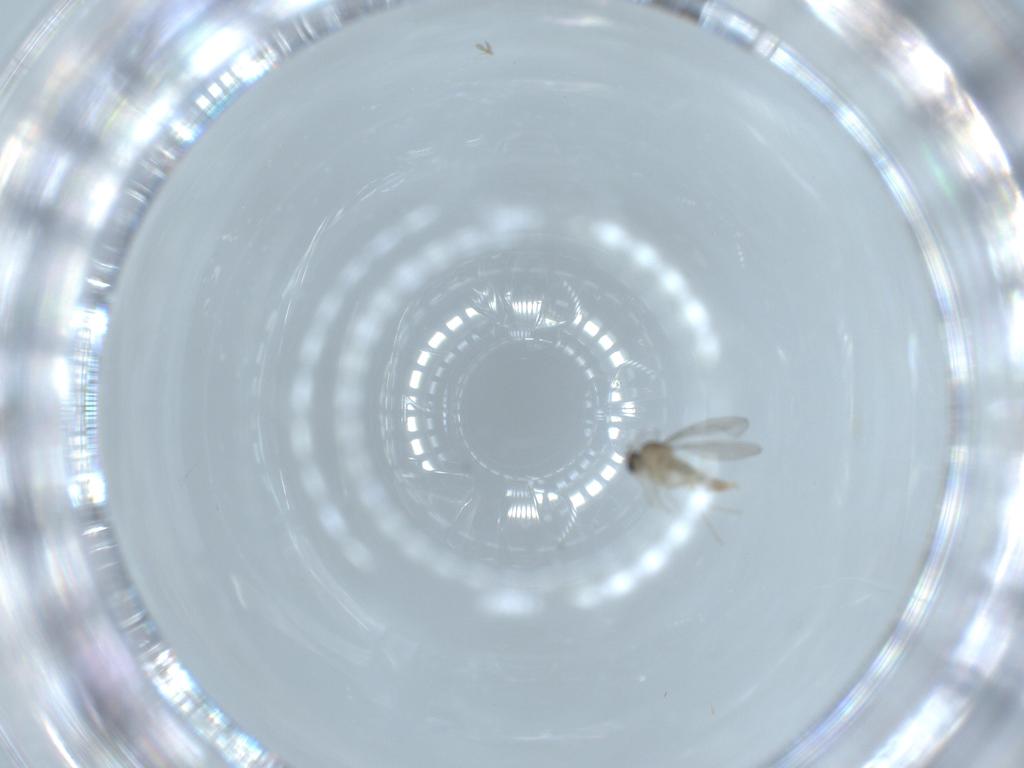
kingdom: Animalia
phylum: Arthropoda
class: Insecta
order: Diptera
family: Cecidomyiidae
